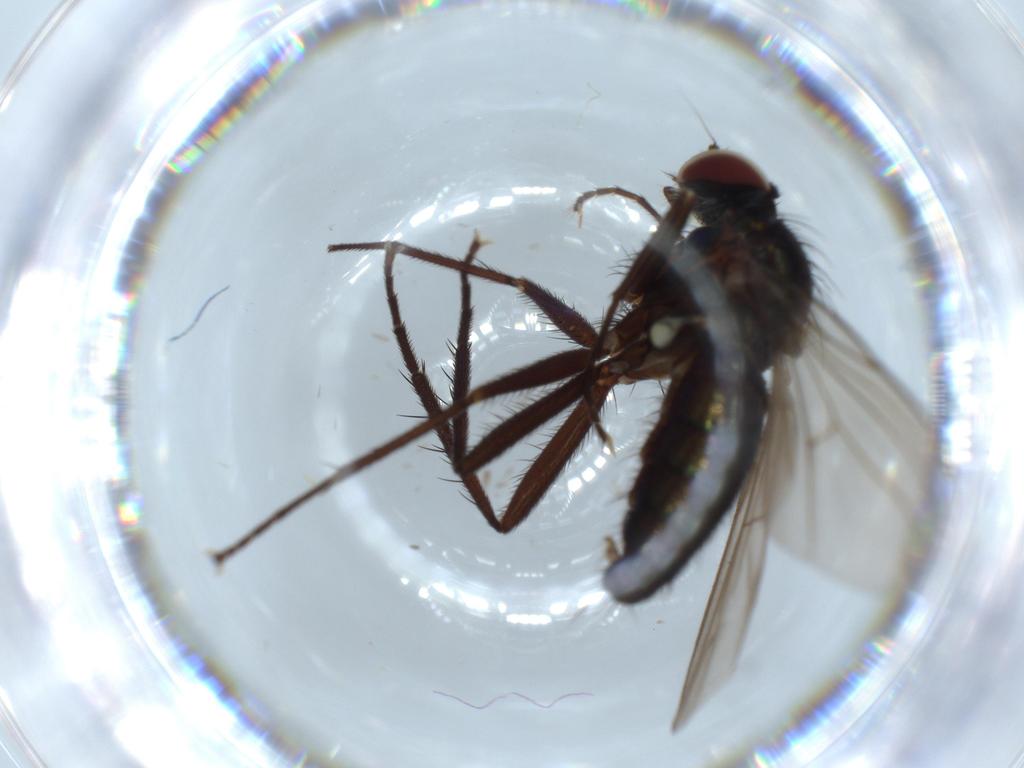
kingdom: Animalia
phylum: Arthropoda
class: Insecta
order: Diptera
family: Dolichopodidae
